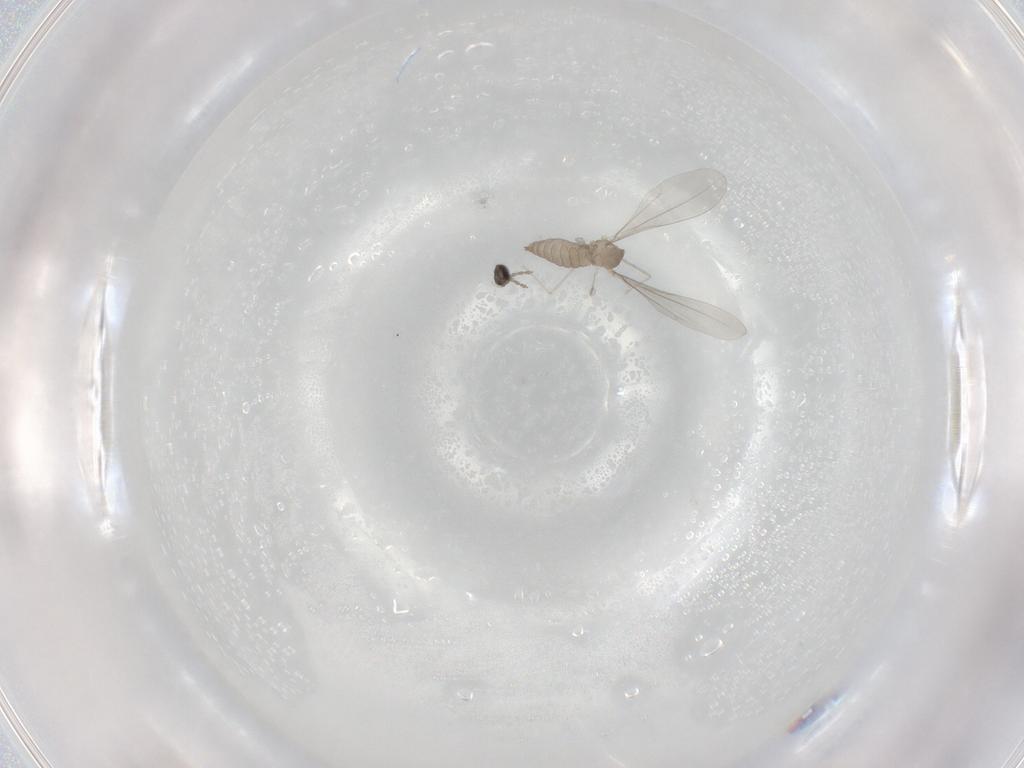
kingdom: Animalia
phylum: Arthropoda
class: Insecta
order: Diptera
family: Cecidomyiidae
